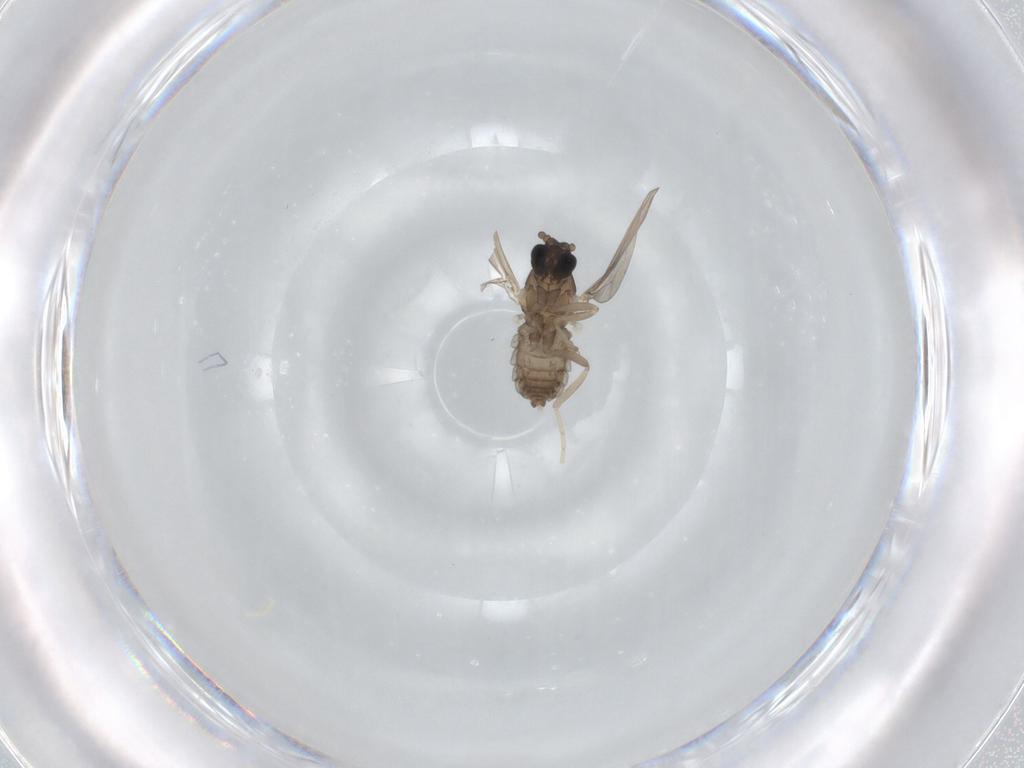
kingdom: Animalia
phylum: Arthropoda
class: Insecta
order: Diptera
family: Cecidomyiidae
